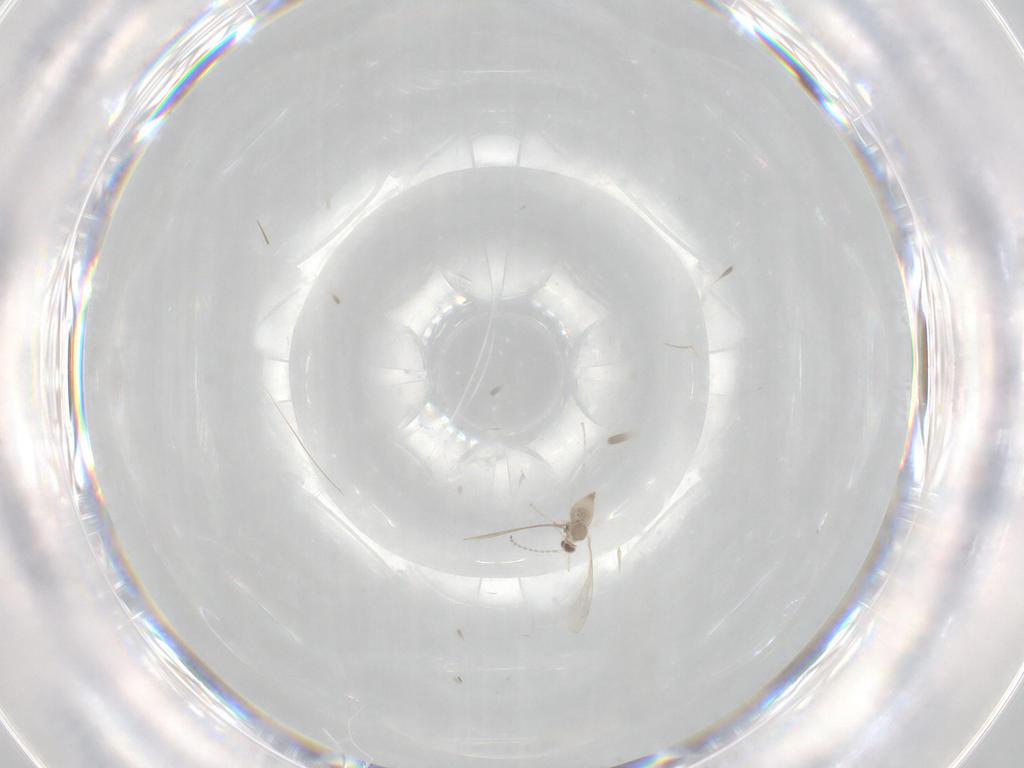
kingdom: Animalia
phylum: Arthropoda
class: Insecta
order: Diptera
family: Cecidomyiidae
